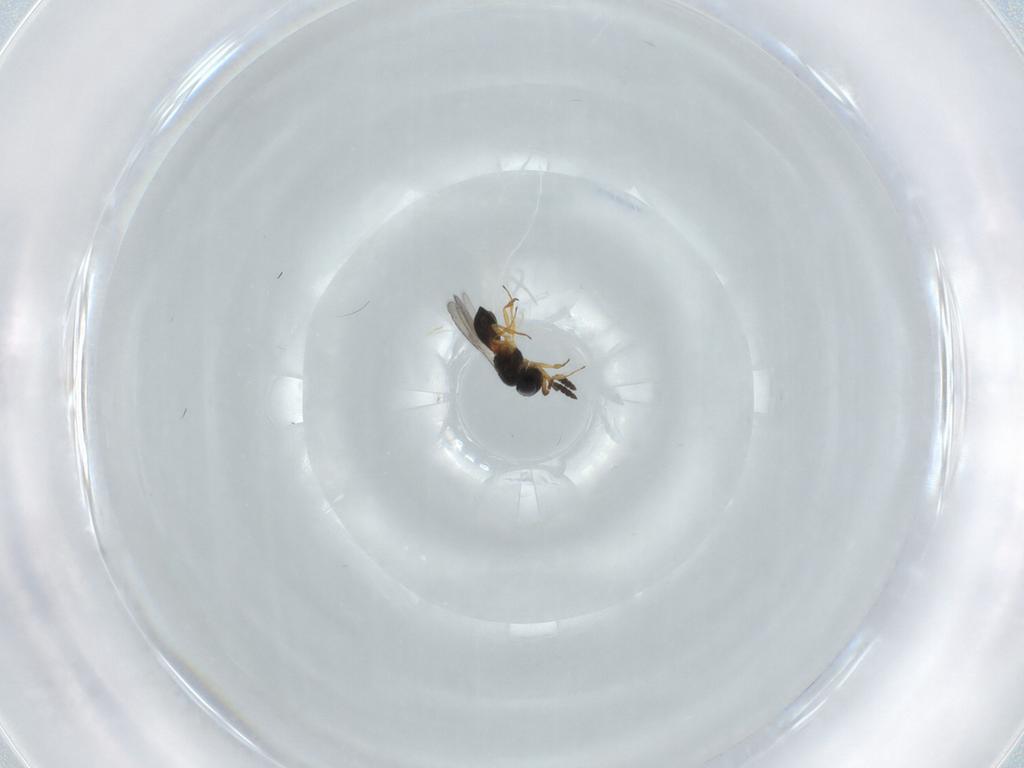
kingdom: Animalia
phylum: Arthropoda
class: Insecta
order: Hymenoptera
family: Scelionidae
